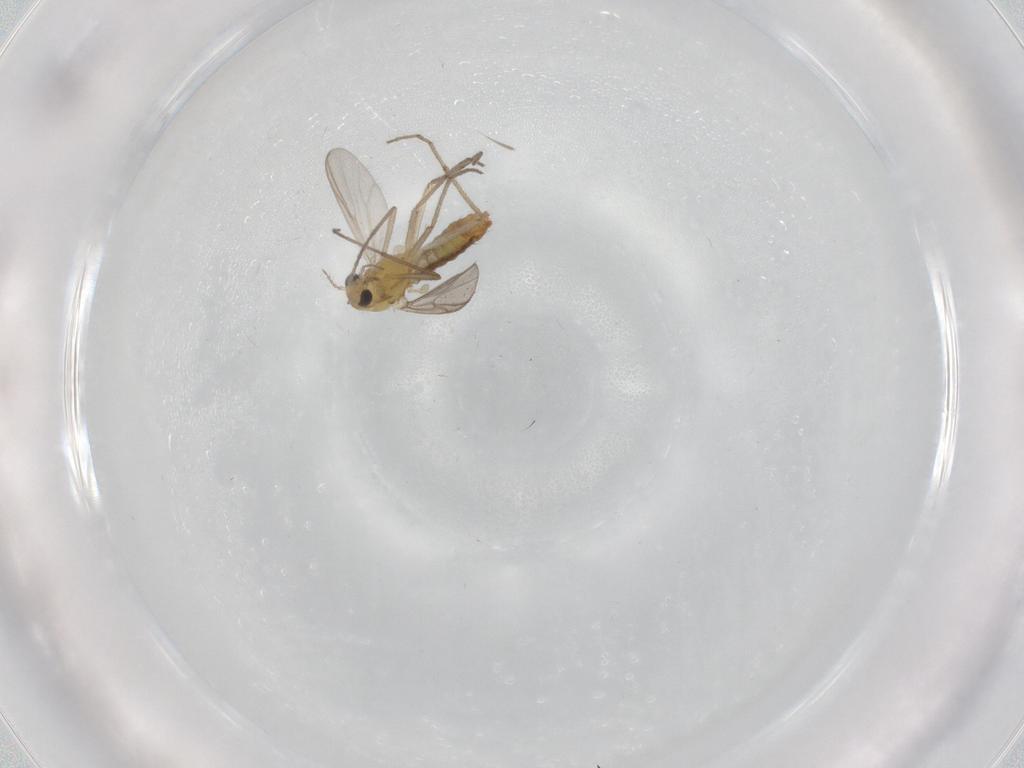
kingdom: Animalia
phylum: Arthropoda
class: Insecta
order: Diptera
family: Chironomidae
